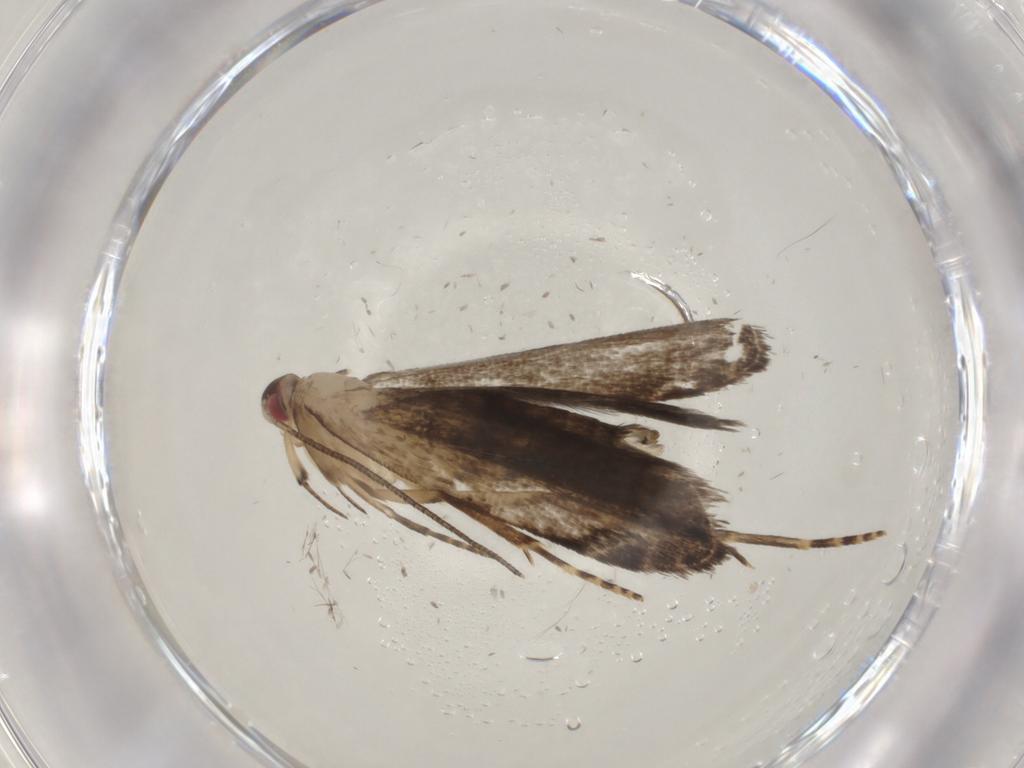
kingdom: Animalia
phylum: Arthropoda
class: Insecta
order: Lepidoptera
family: Gelechiidae
